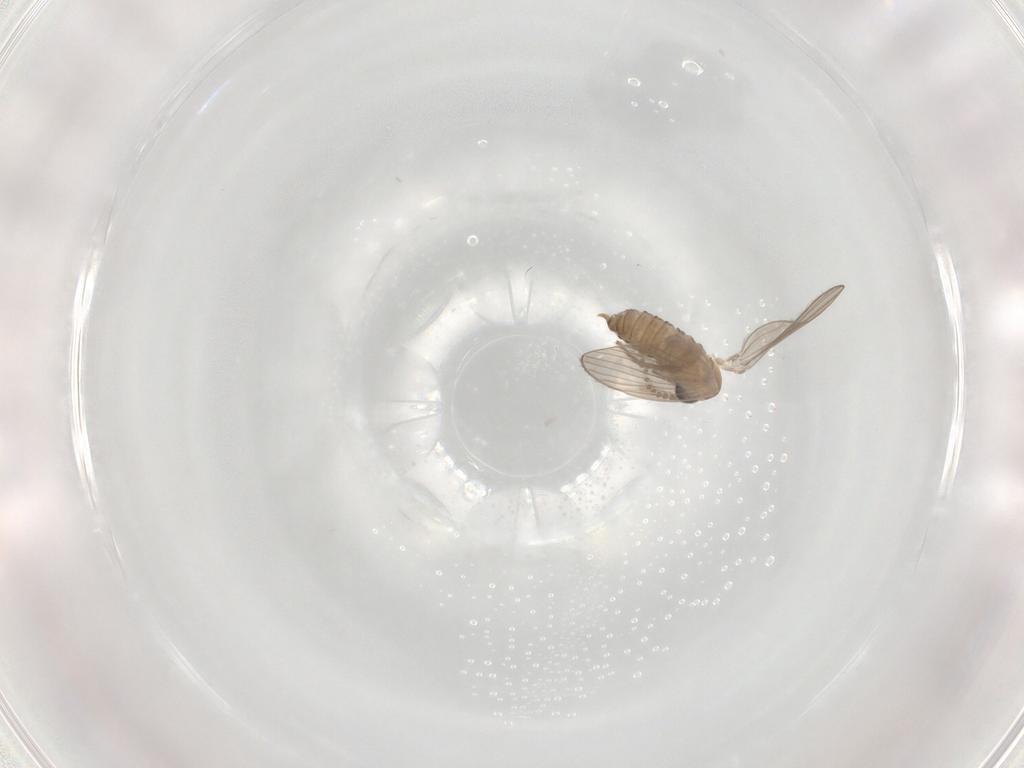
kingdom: Animalia
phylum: Arthropoda
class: Insecta
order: Diptera
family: Psychodidae
